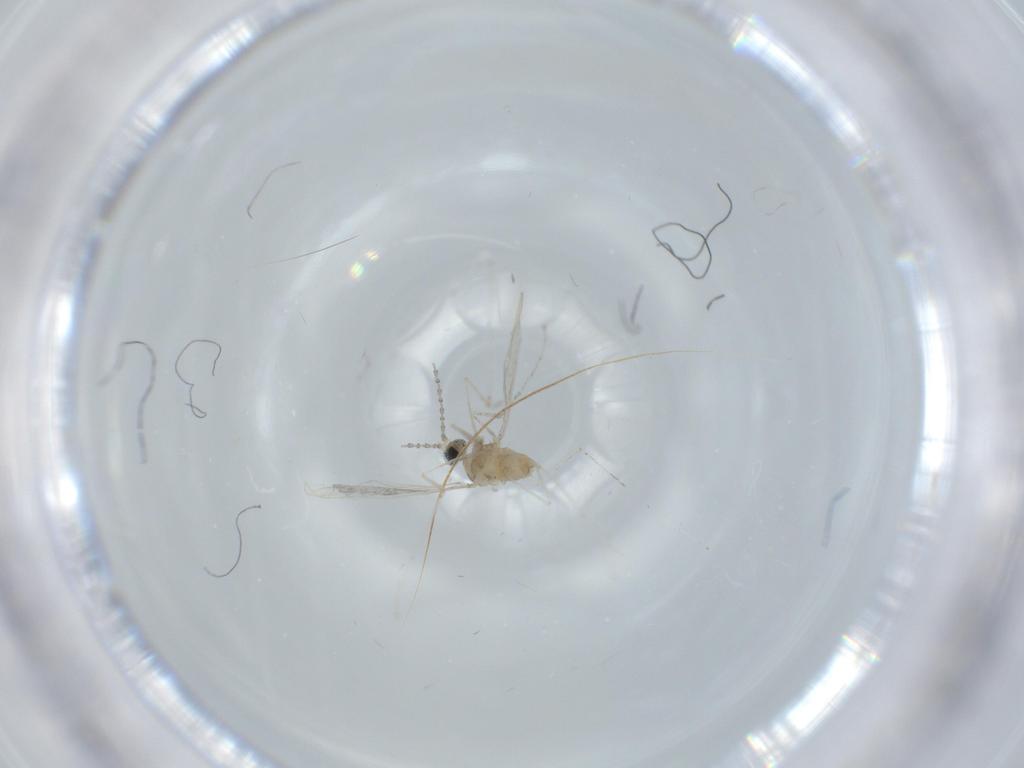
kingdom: Animalia
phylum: Arthropoda
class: Insecta
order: Diptera
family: Cecidomyiidae
